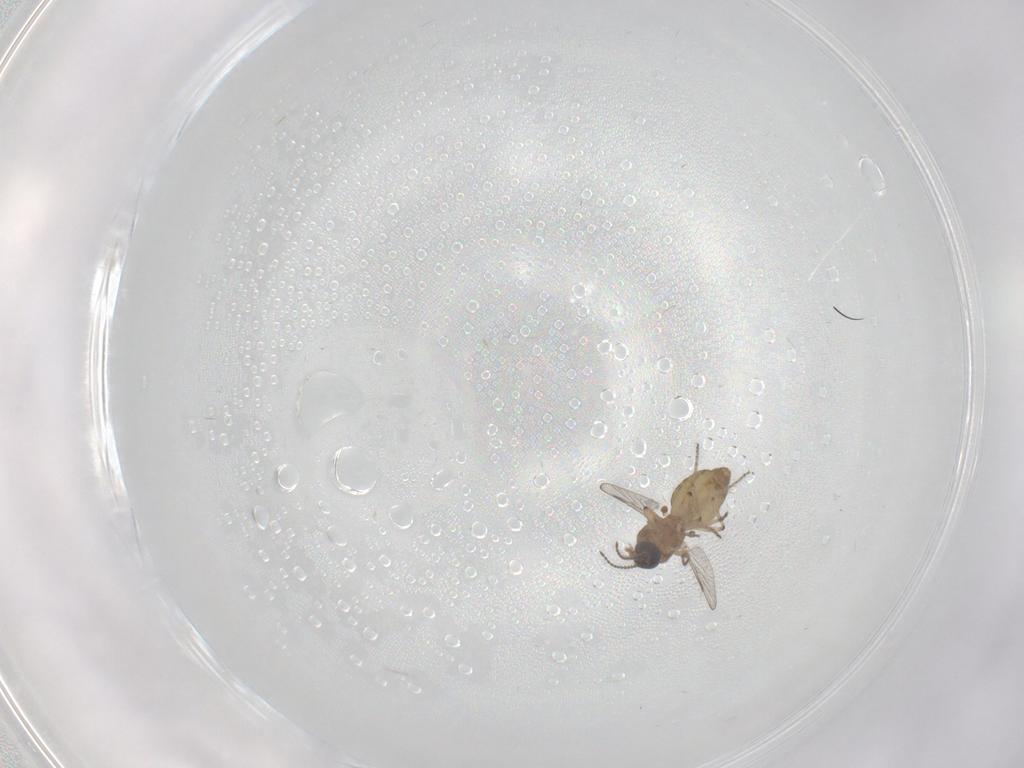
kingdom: Animalia
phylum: Arthropoda
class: Insecta
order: Diptera
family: Ceratopogonidae
